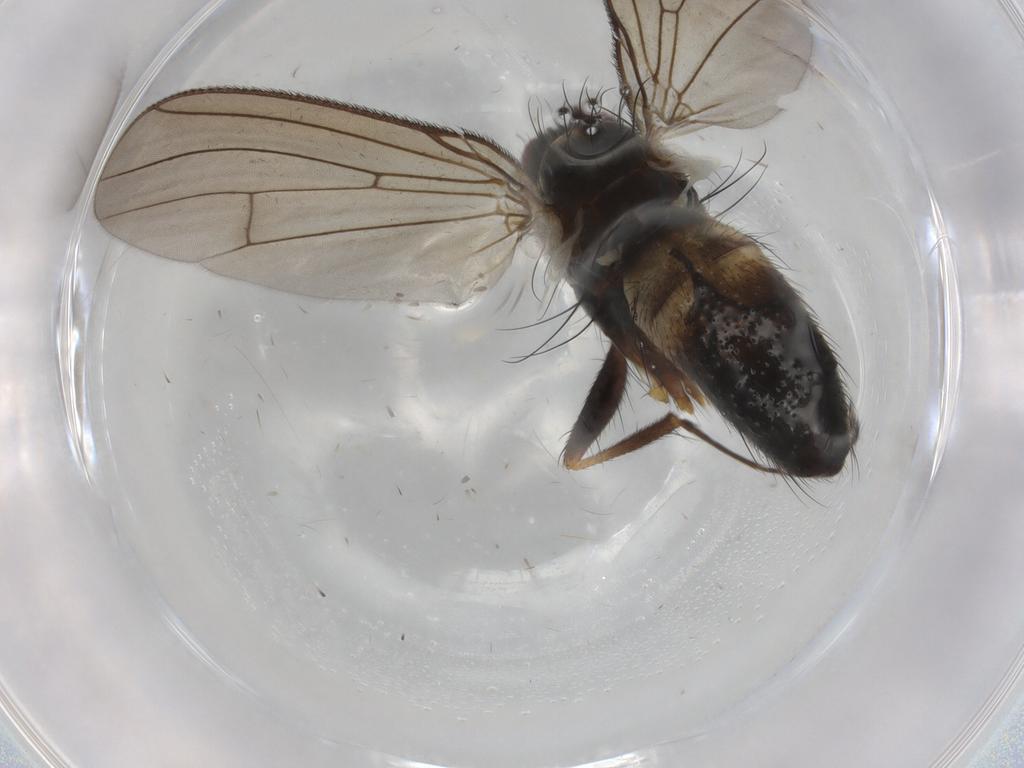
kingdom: Animalia
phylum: Arthropoda
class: Insecta
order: Diptera
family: Muscidae
